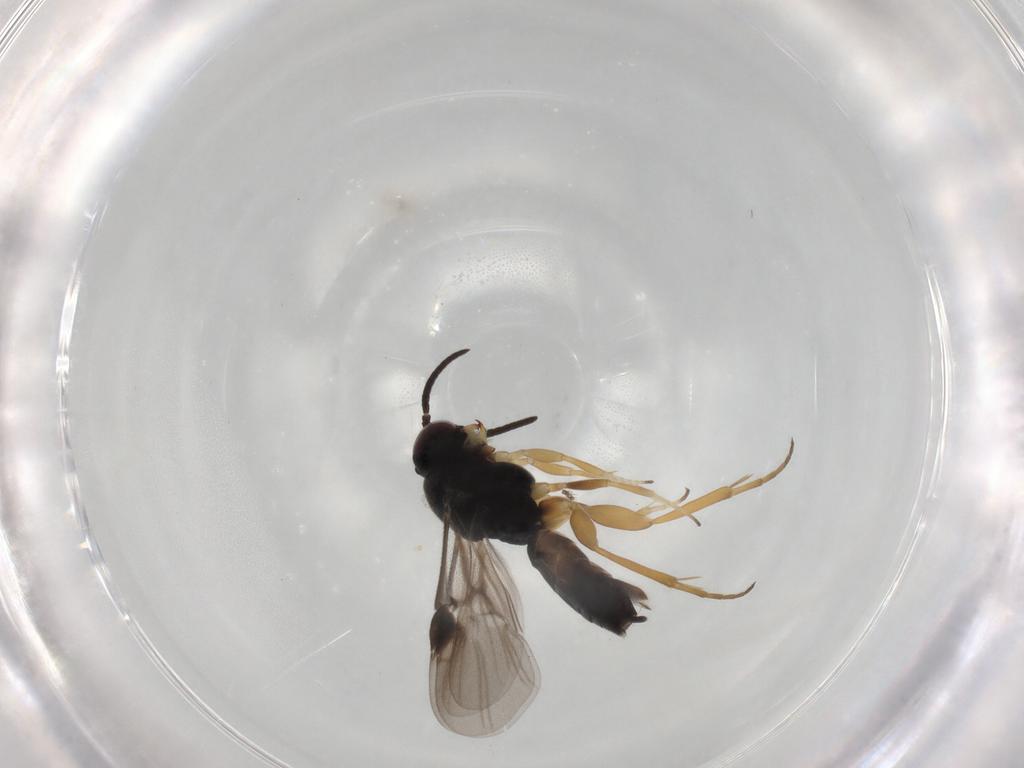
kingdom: Animalia
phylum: Arthropoda
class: Insecta
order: Hymenoptera
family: Braconidae
